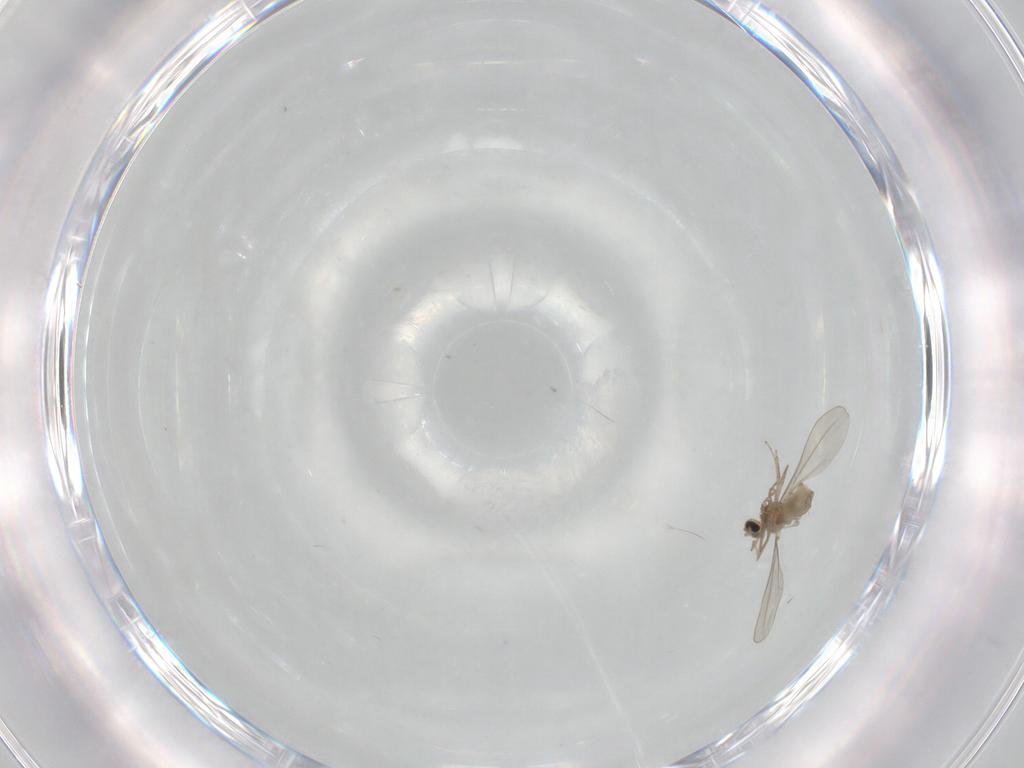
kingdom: Animalia
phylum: Arthropoda
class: Insecta
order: Diptera
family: Cecidomyiidae
